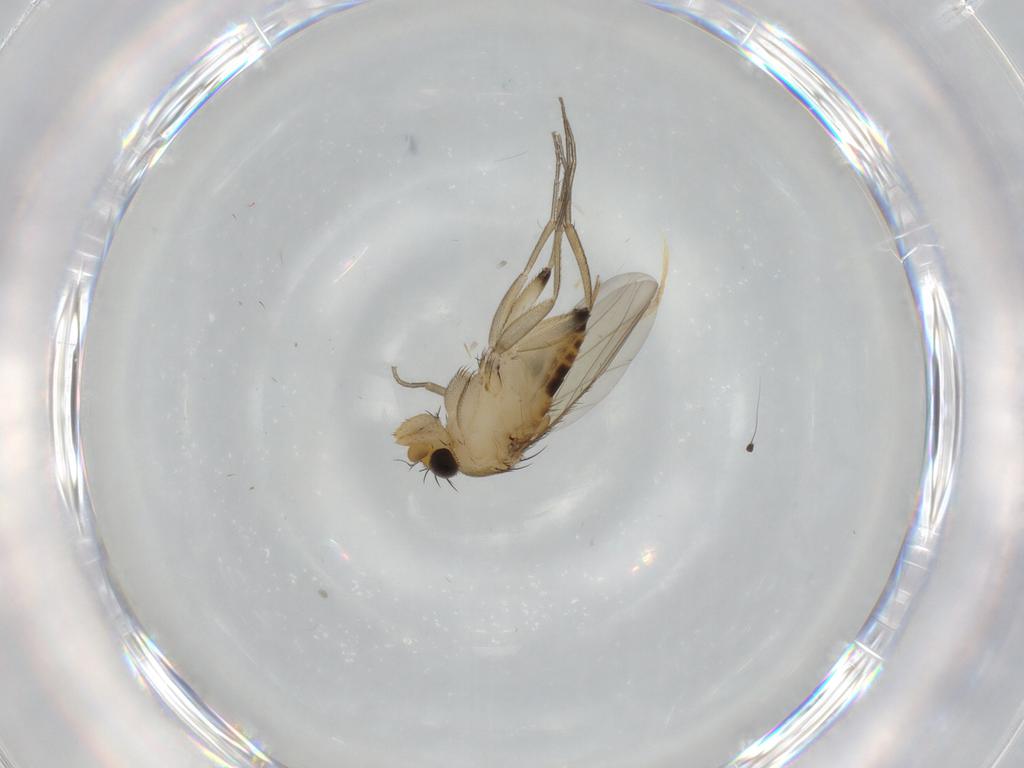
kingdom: Animalia
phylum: Arthropoda
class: Insecta
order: Diptera
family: Phoridae
